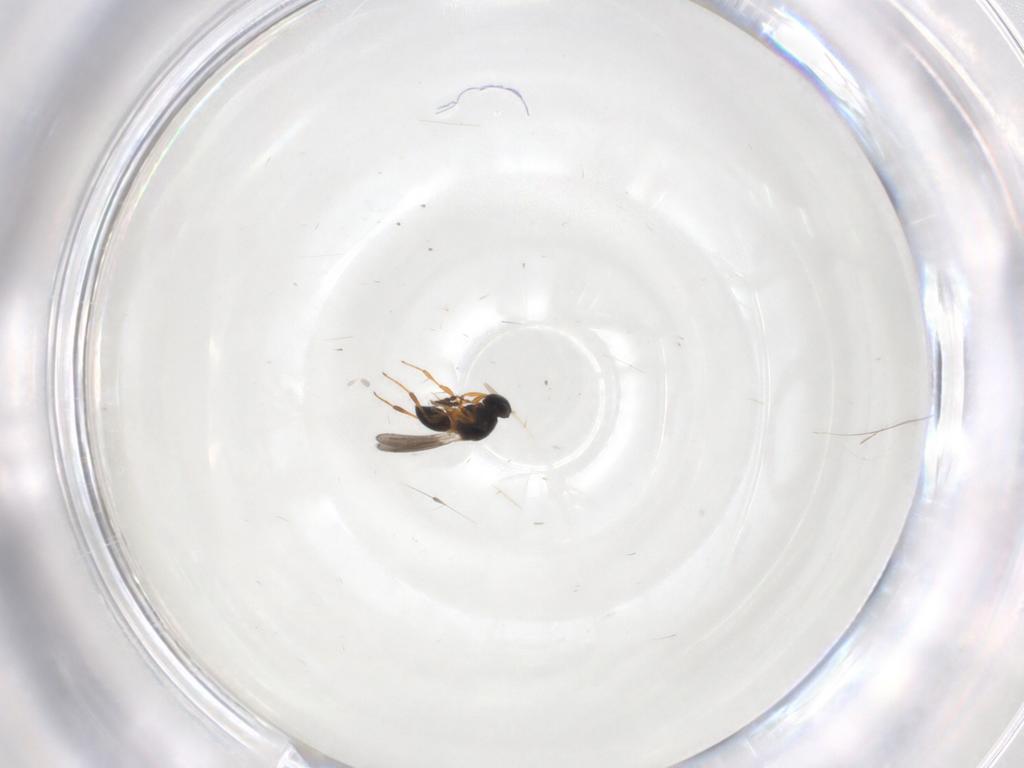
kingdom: Animalia
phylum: Arthropoda
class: Insecta
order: Hymenoptera
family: Platygastridae
